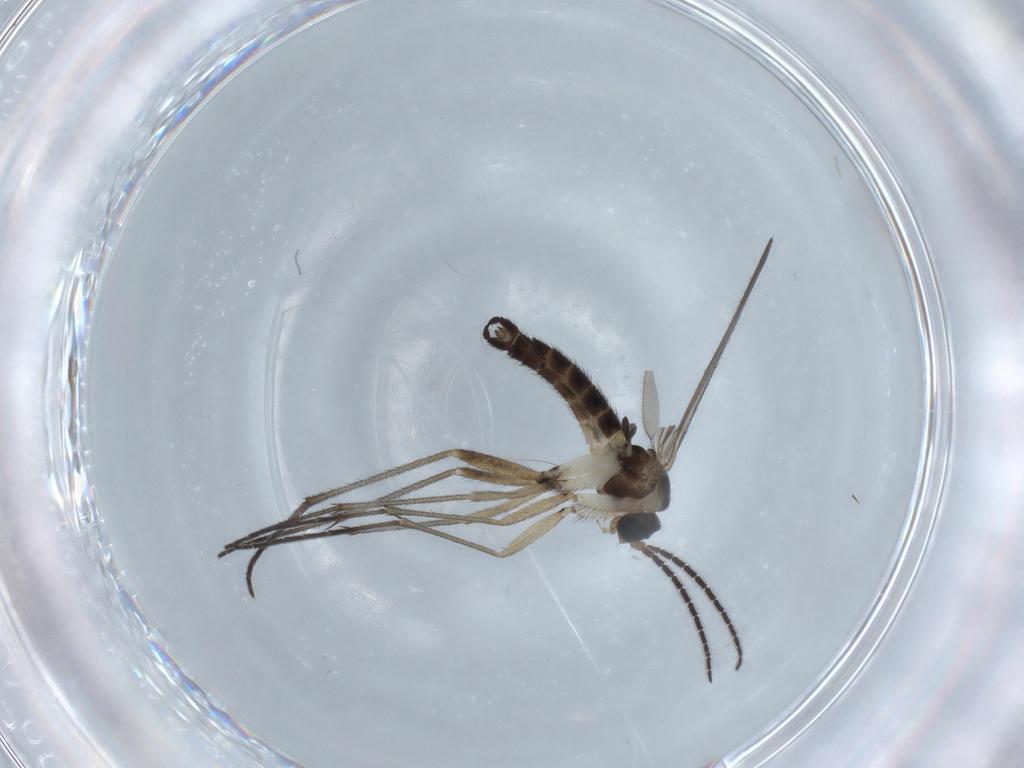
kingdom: Animalia
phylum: Arthropoda
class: Insecta
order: Diptera
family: Sciaridae
